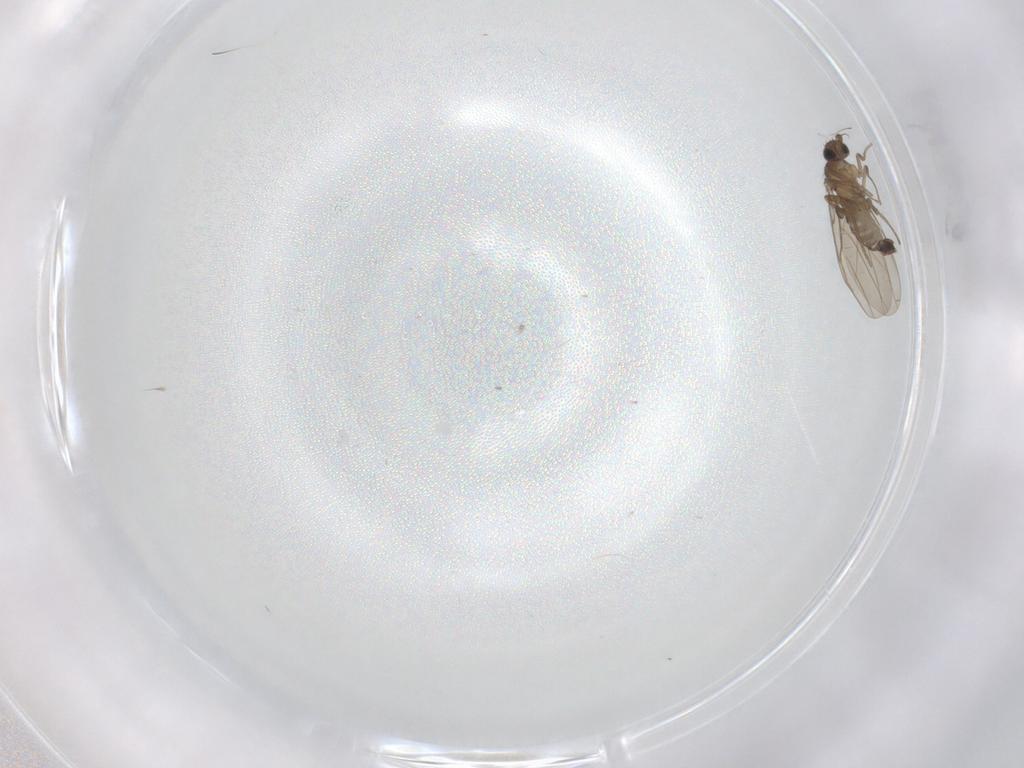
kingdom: Animalia
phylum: Arthropoda
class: Insecta
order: Diptera
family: Phoridae
